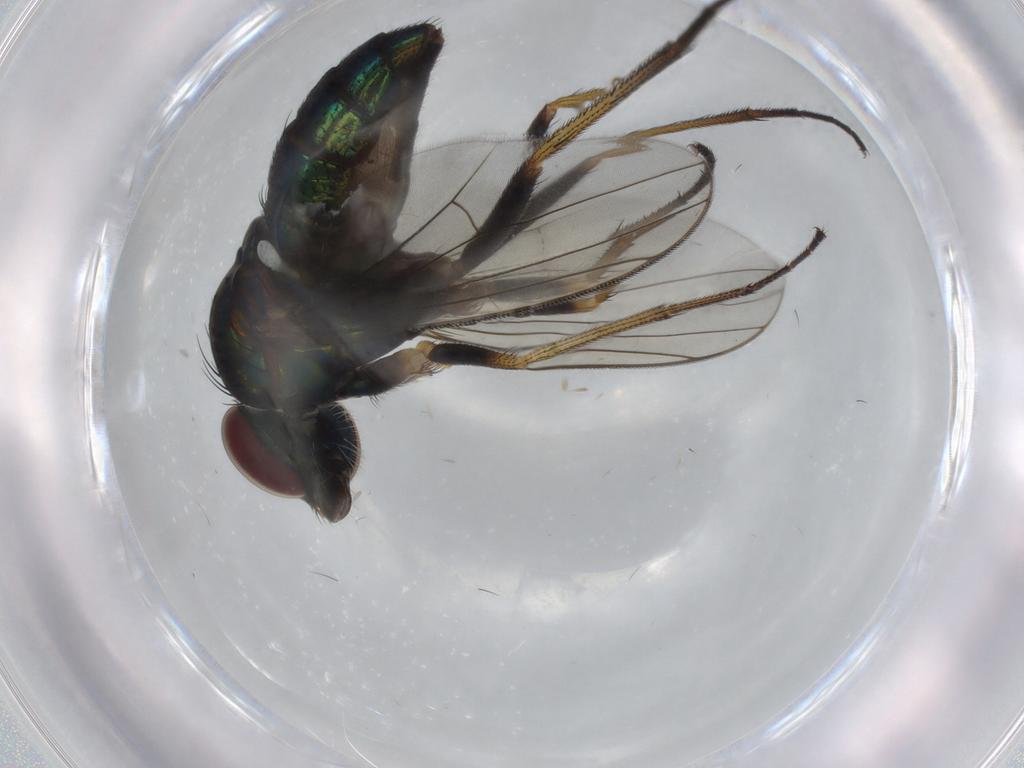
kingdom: Animalia
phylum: Arthropoda
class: Insecta
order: Diptera
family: Dolichopodidae
